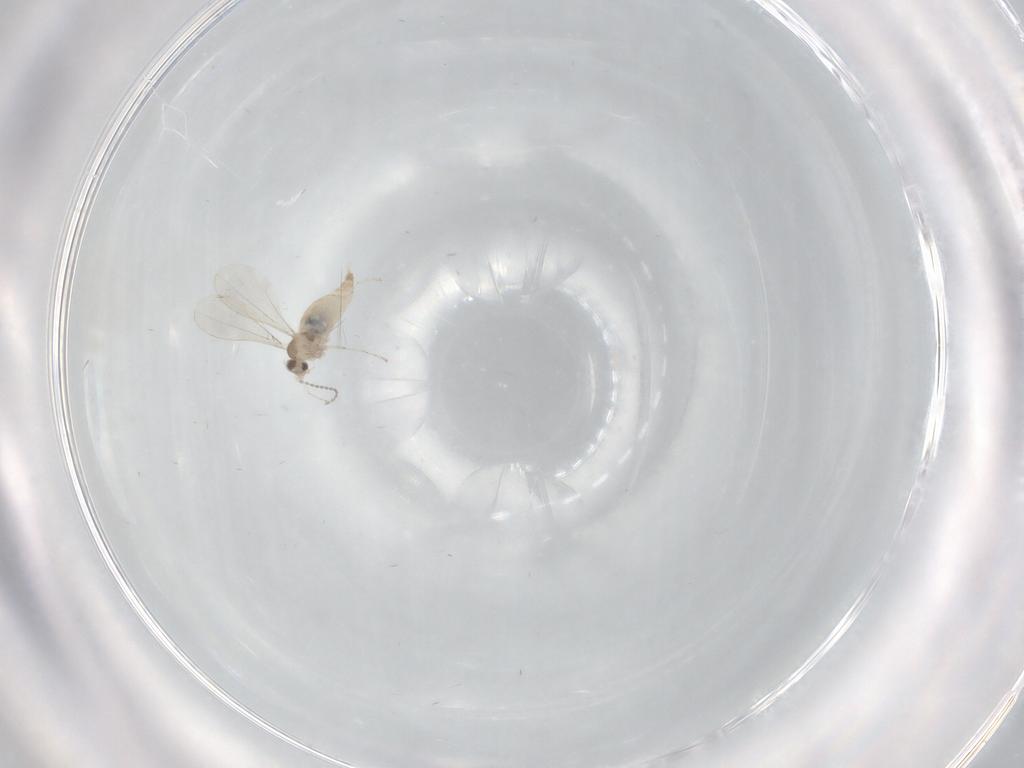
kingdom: Animalia
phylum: Arthropoda
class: Insecta
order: Diptera
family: Cecidomyiidae
